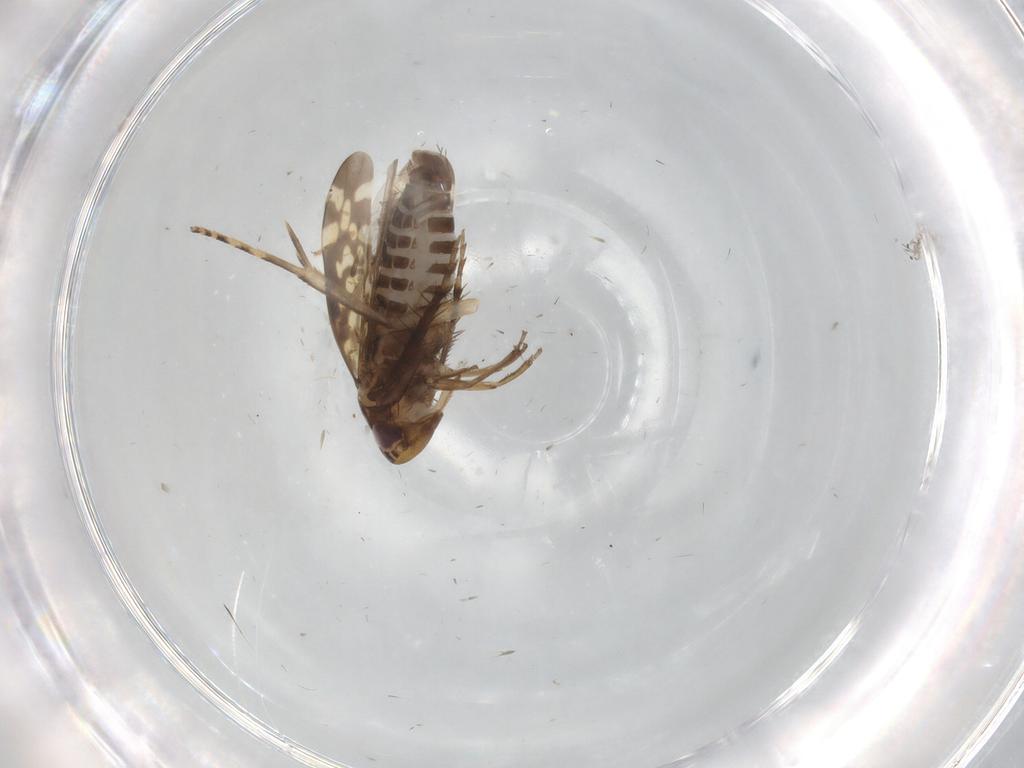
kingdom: Animalia
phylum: Arthropoda
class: Insecta
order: Hemiptera
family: Cicadellidae
